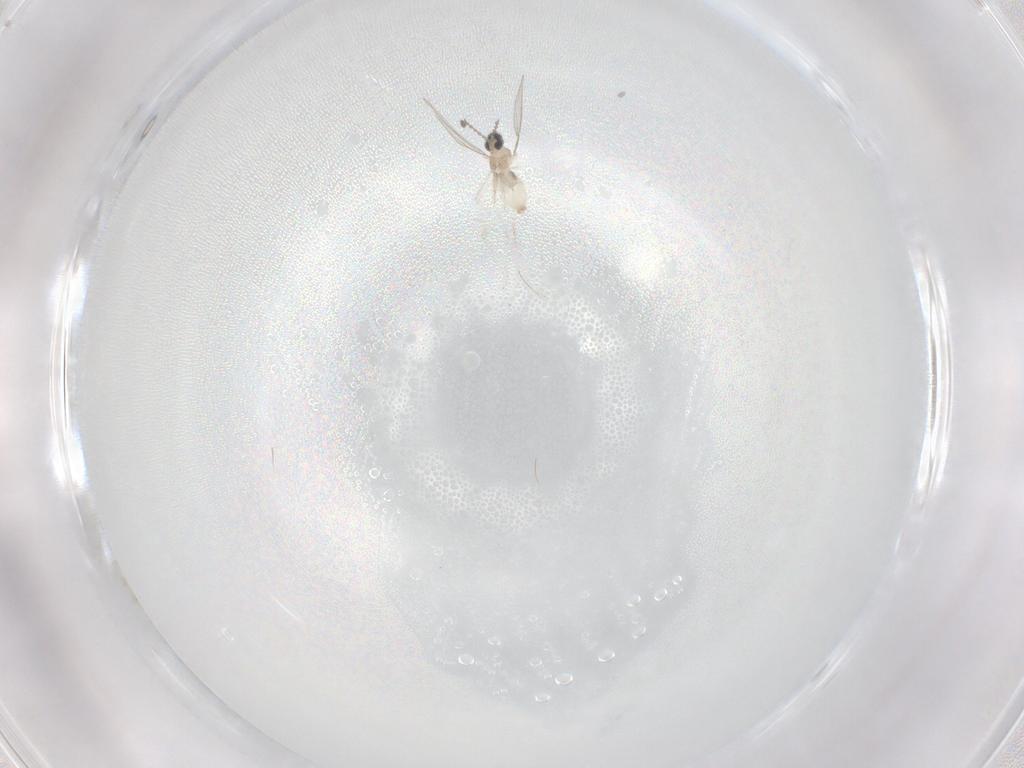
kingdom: Animalia
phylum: Arthropoda
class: Insecta
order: Diptera
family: Cecidomyiidae
